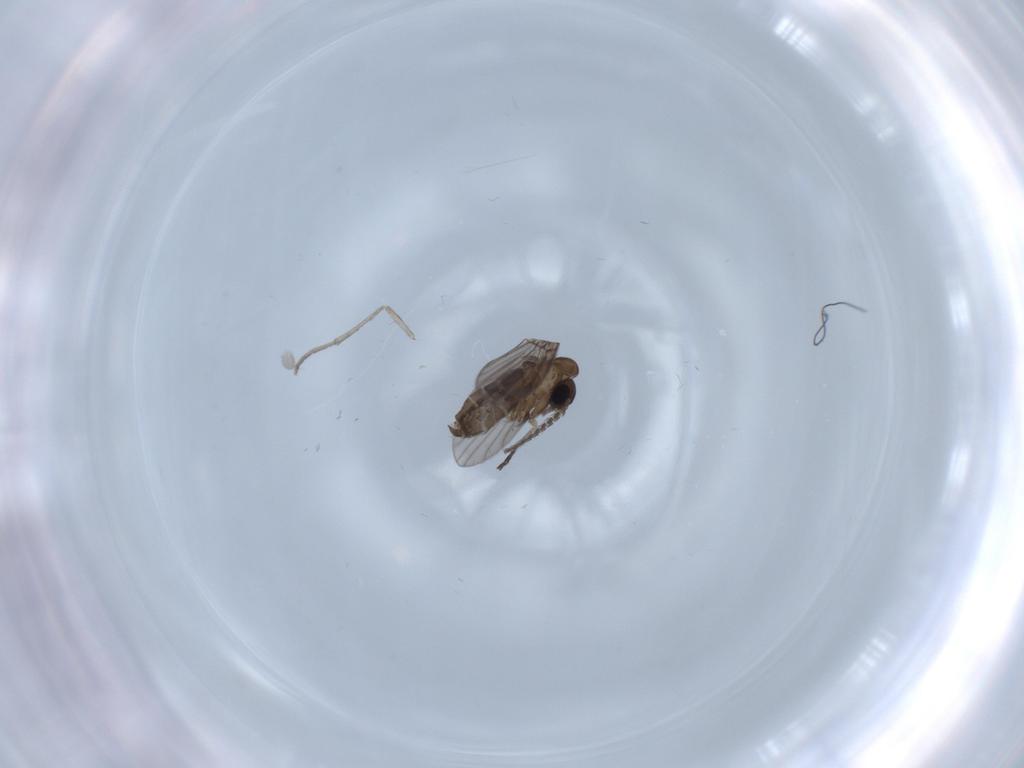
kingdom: Animalia
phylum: Arthropoda
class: Insecta
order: Diptera
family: Psychodidae
